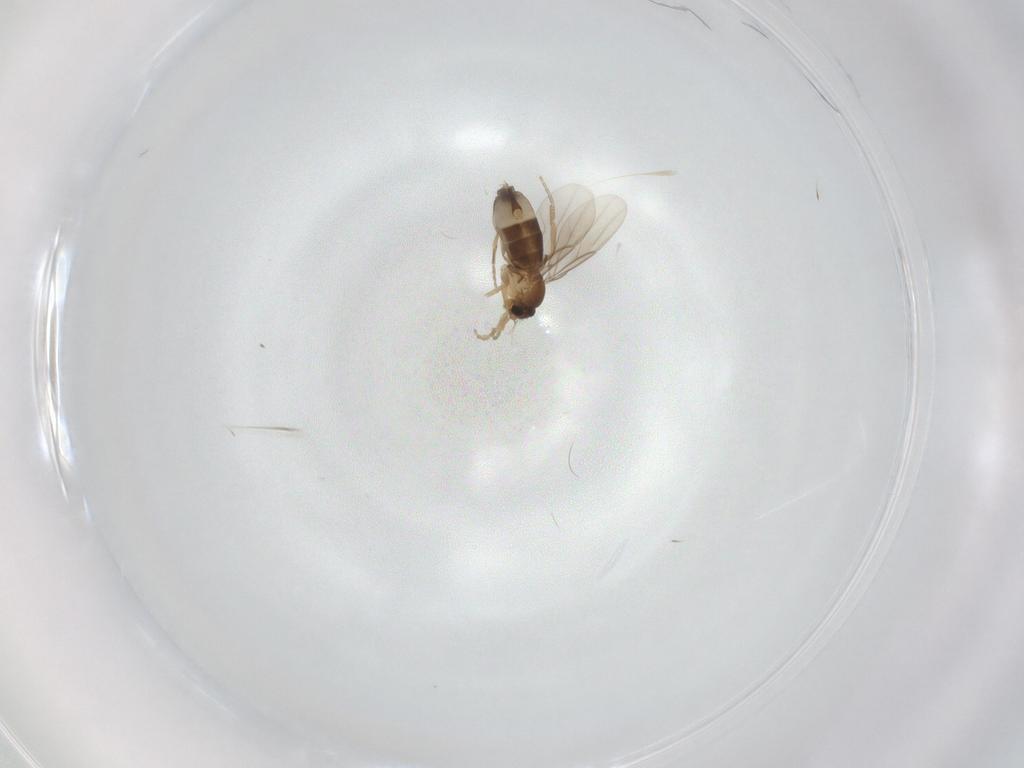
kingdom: Animalia
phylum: Arthropoda
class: Insecta
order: Diptera
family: Phoridae
